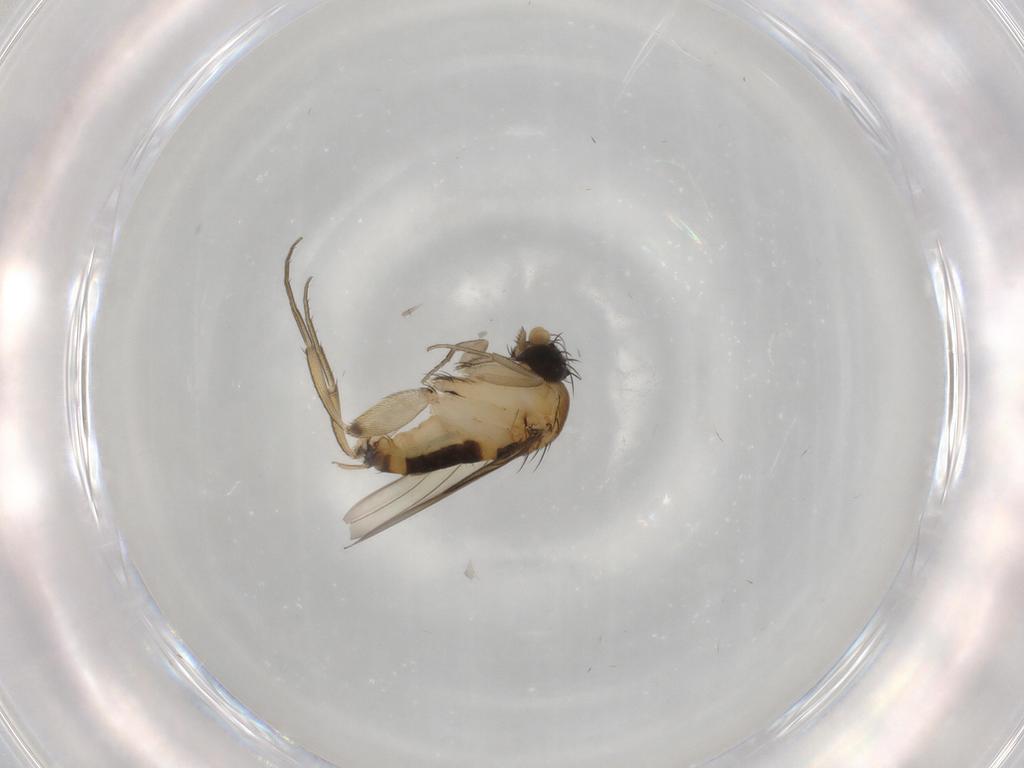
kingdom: Animalia
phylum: Arthropoda
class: Insecta
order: Diptera
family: Phoridae
